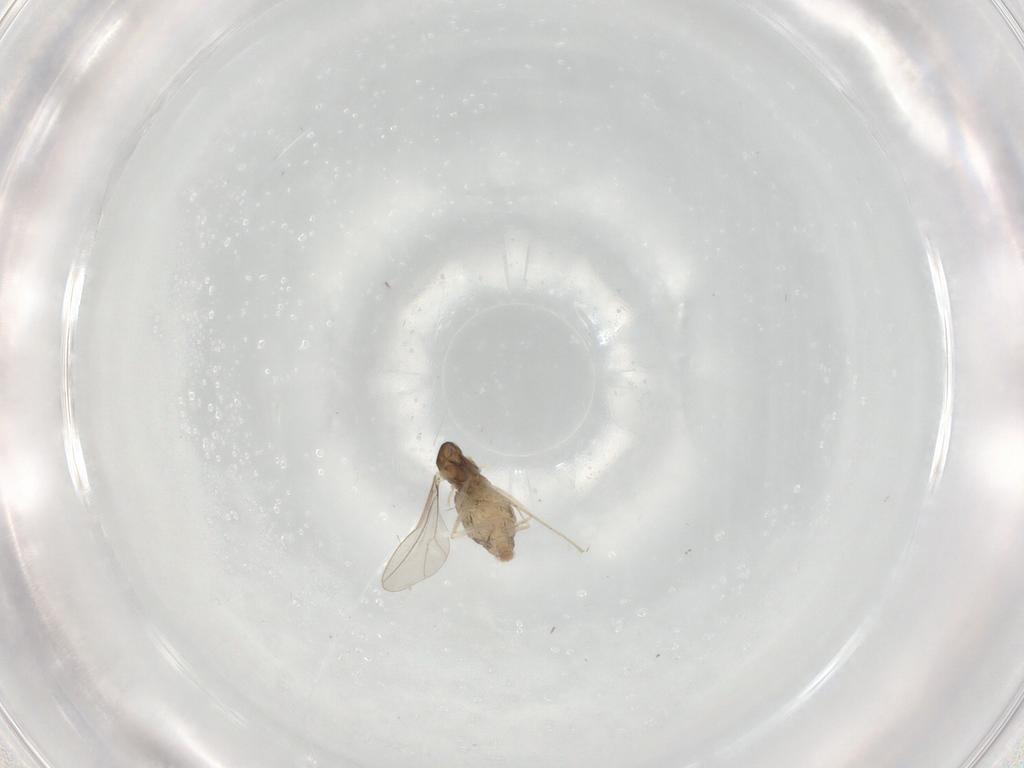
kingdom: Animalia
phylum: Arthropoda
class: Insecta
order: Diptera
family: Cecidomyiidae
